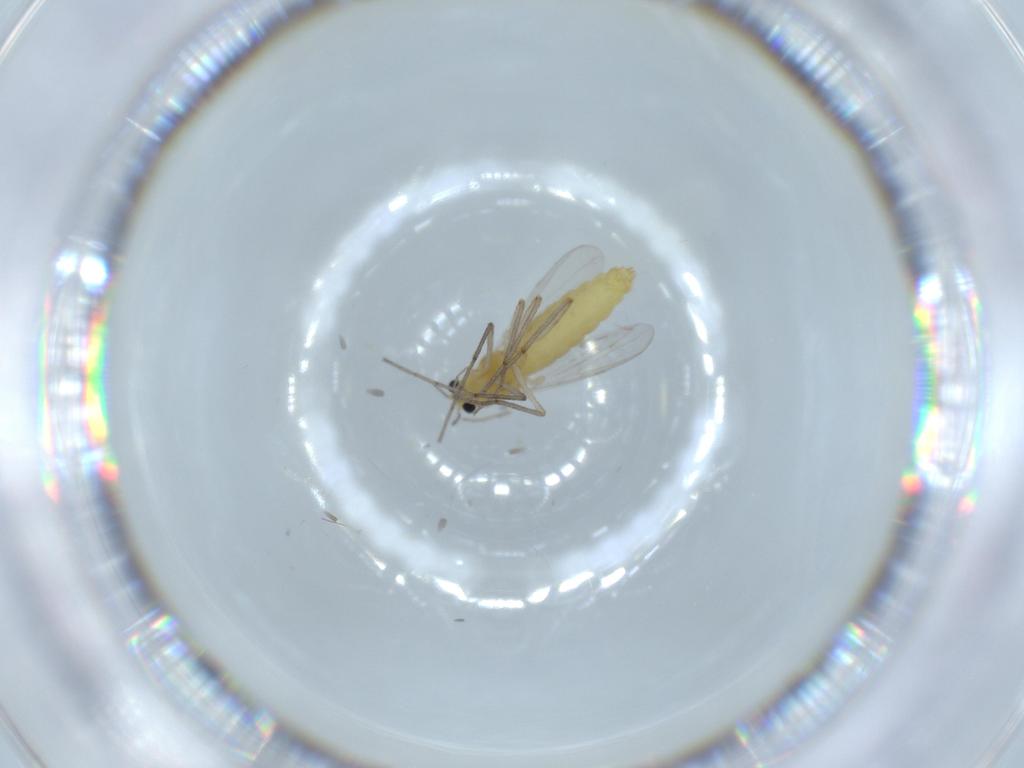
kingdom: Animalia
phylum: Arthropoda
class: Insecta
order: Diptera
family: Chironomidae
